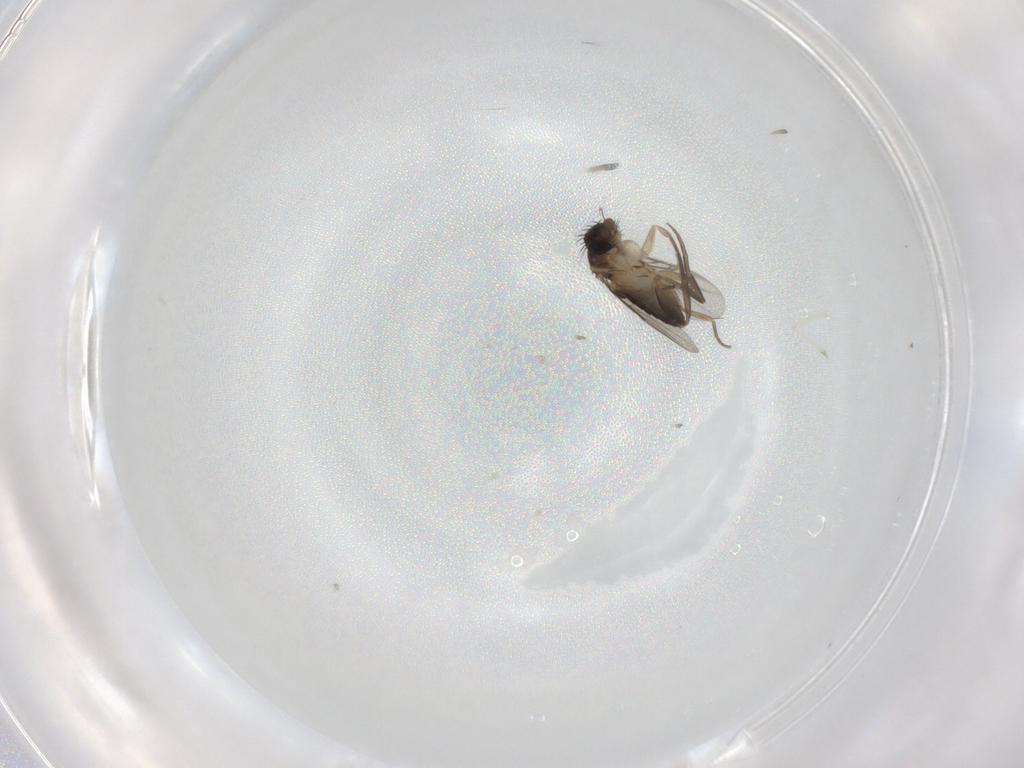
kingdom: Animalia
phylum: Arthropoda
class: Insecta
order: Diptera
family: Phoridae
